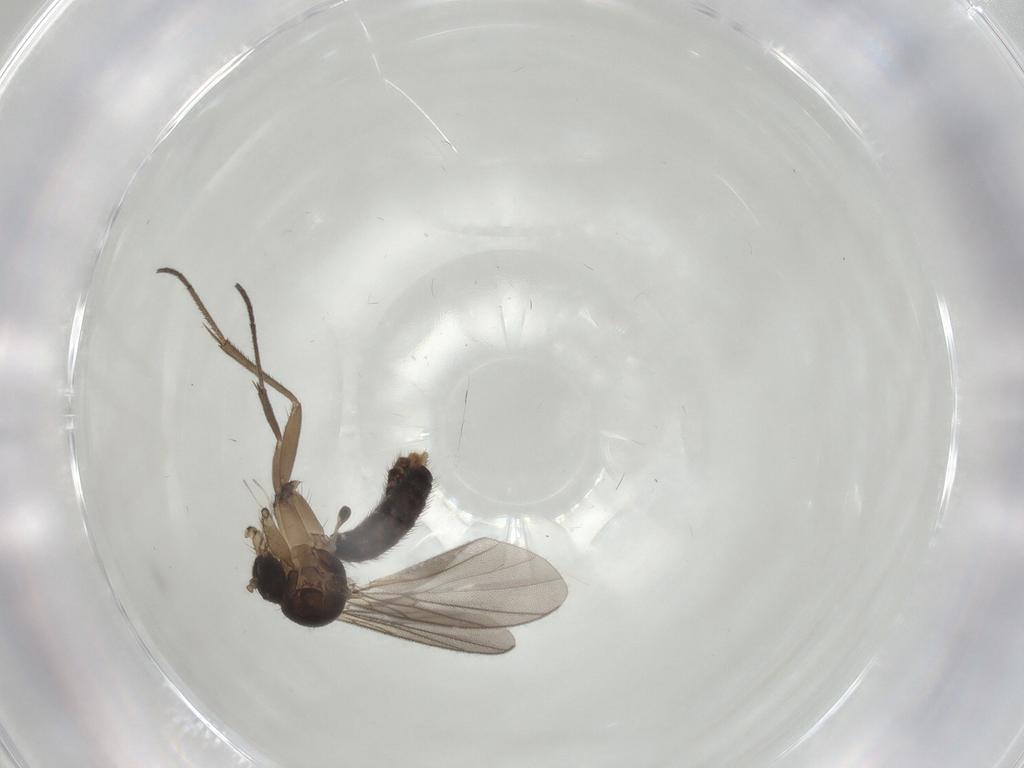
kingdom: Animalia
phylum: Arthropoda
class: Insecta
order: Diptera
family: Mycetophilidae
